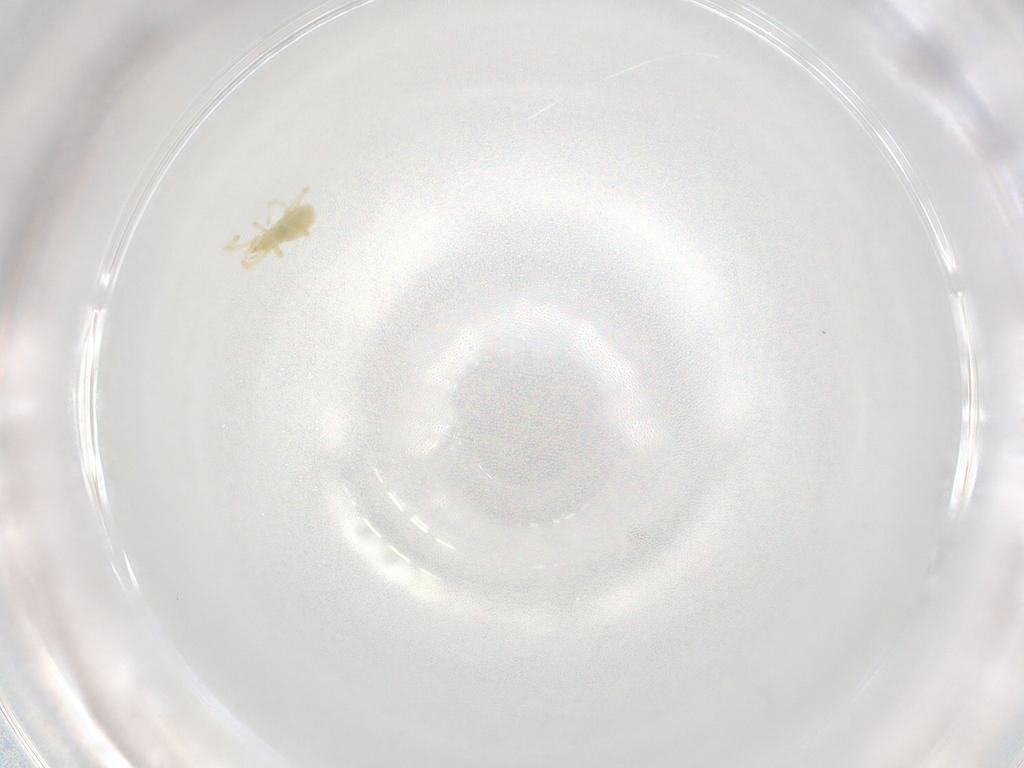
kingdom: Animalia
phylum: Arthropoda
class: Arachnida
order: Trombidiformes
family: Erythraeidae
